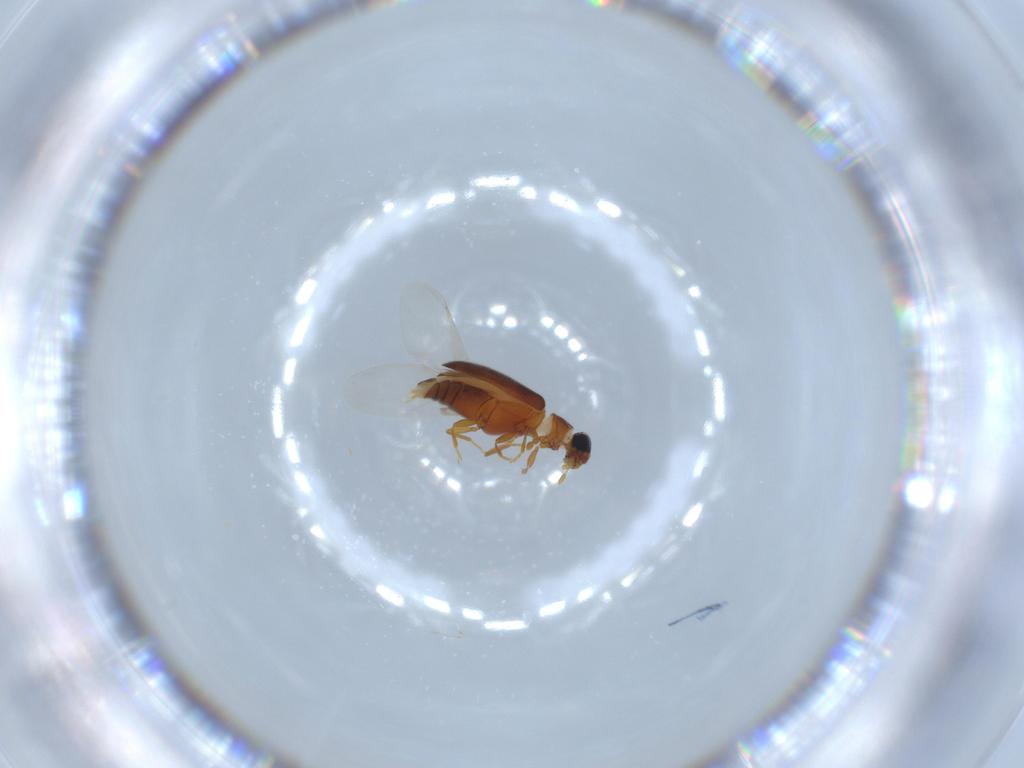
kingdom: Animalia
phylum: Arthropoda
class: Insecta
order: Coleoptera
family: Aderidae
